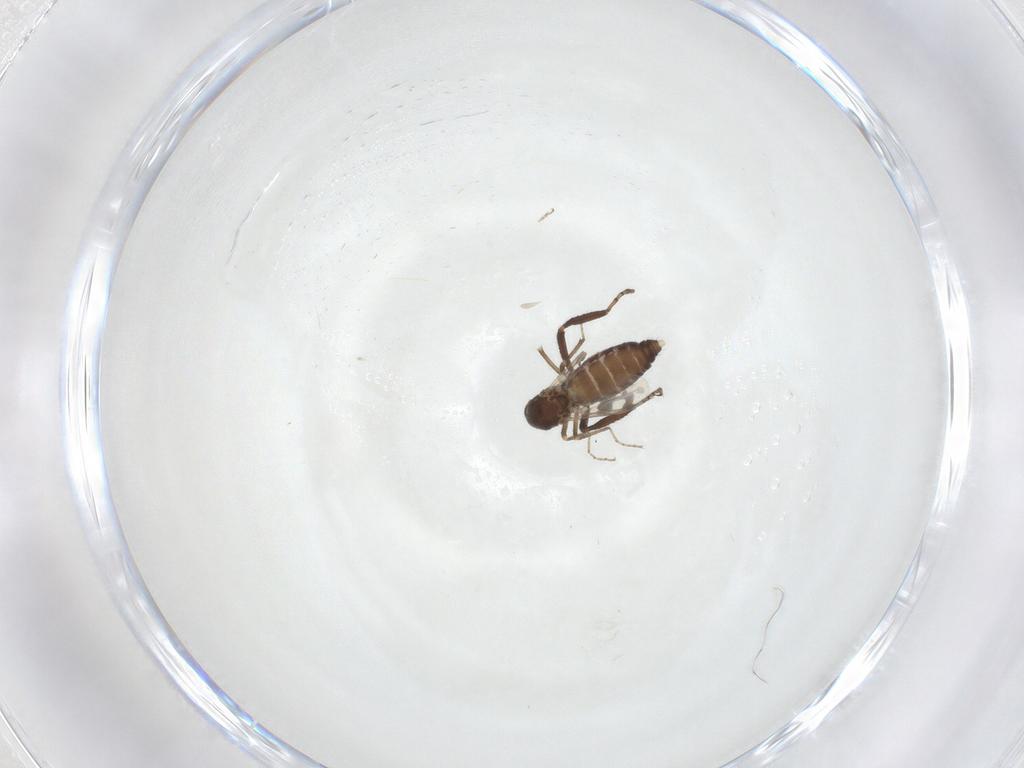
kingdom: Animalia
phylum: Arthropoda
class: Insecta
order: Diptera
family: Ceratopogonidae
